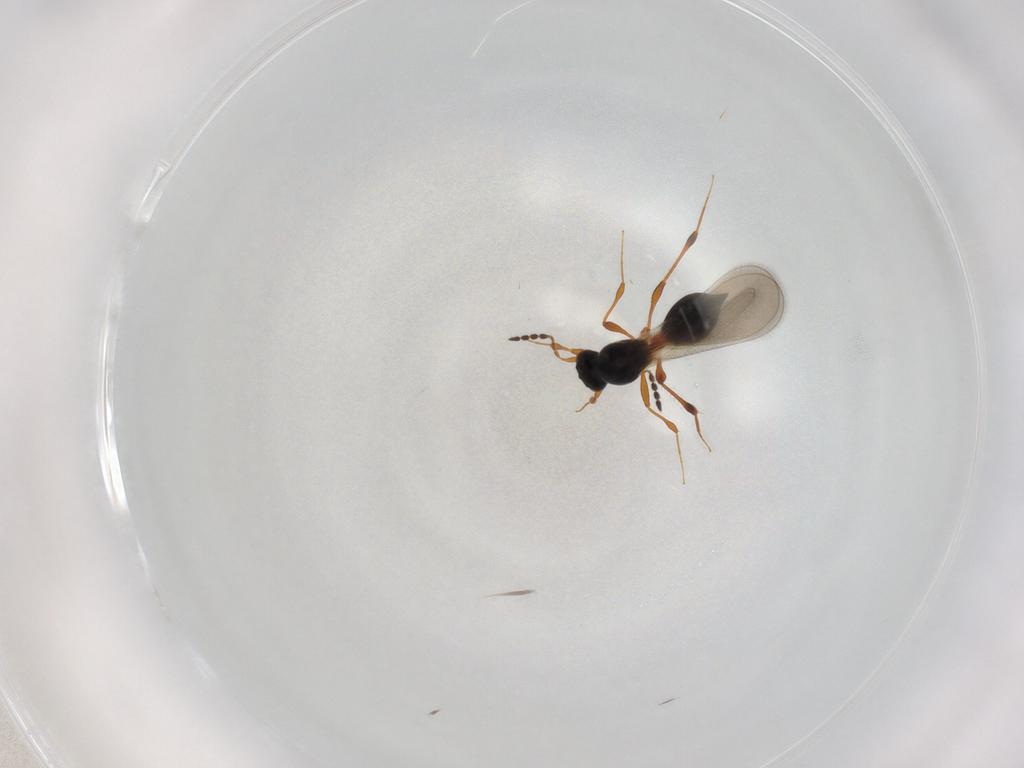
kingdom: Animalia
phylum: Arthropoda
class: Insecta
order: Hymenoptera
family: Platygastridae
